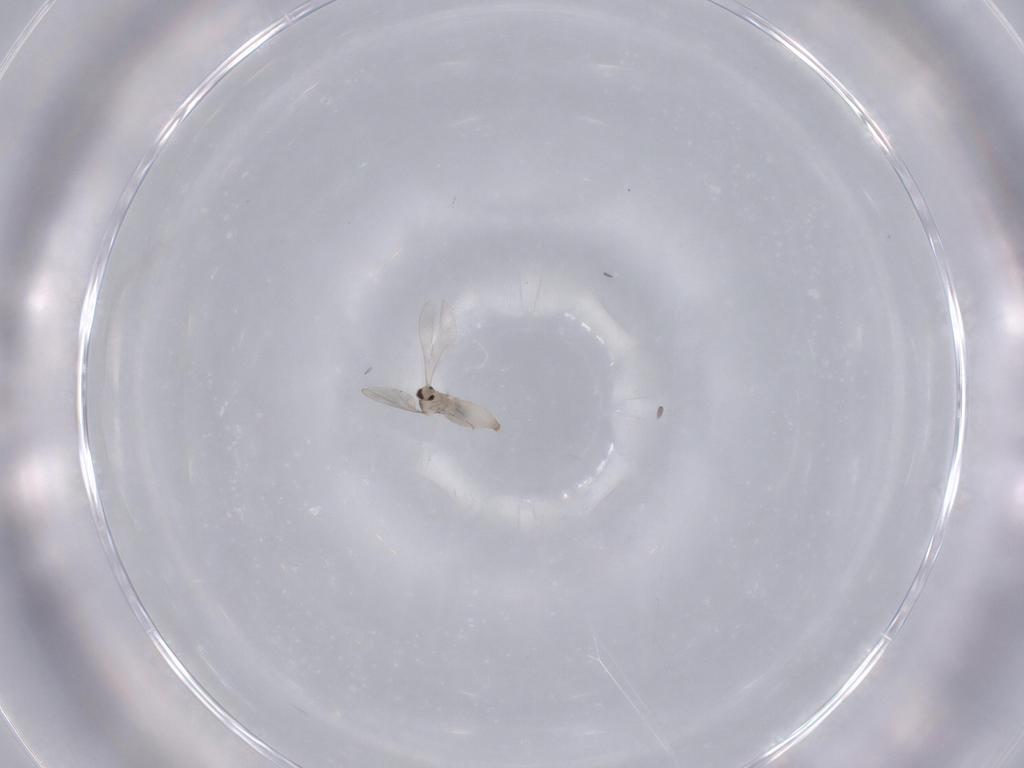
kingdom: Animalia
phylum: Arthropoda
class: Insecta
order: Diptera
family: Cecidomyiidae
